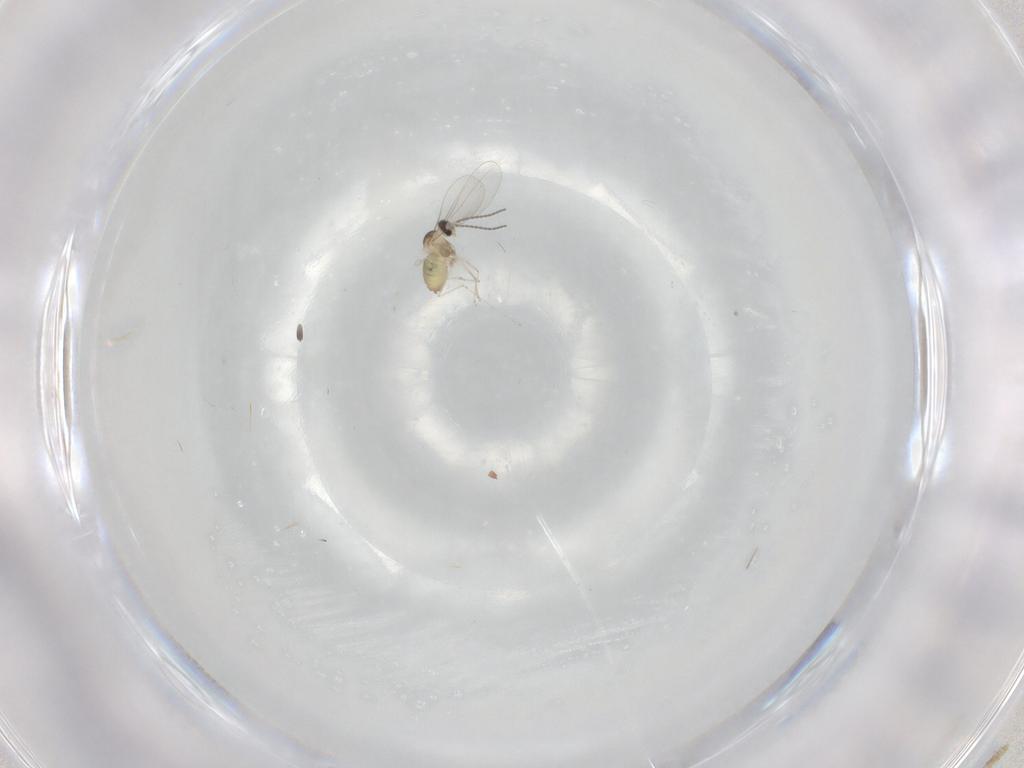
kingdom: Animalia
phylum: Arthropoda
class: Insecta
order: Diptera
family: Cecidomyiidae
